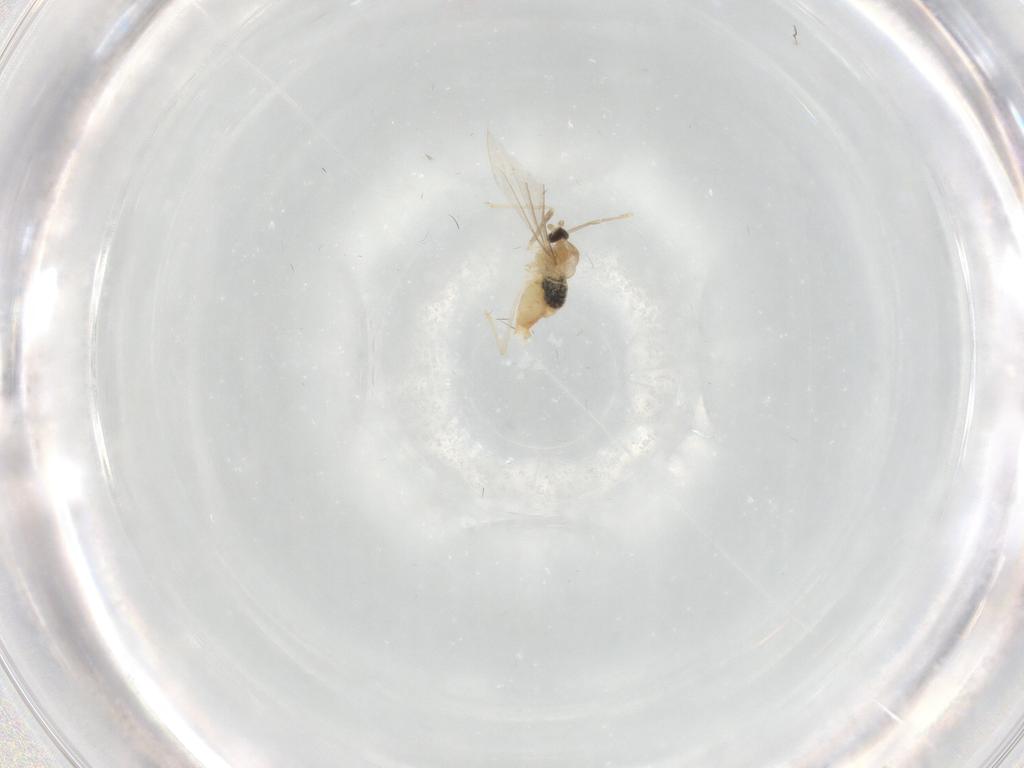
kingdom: Animalia
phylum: Arthropoda
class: Insecta
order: Diptera
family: Cecidomyiidae
